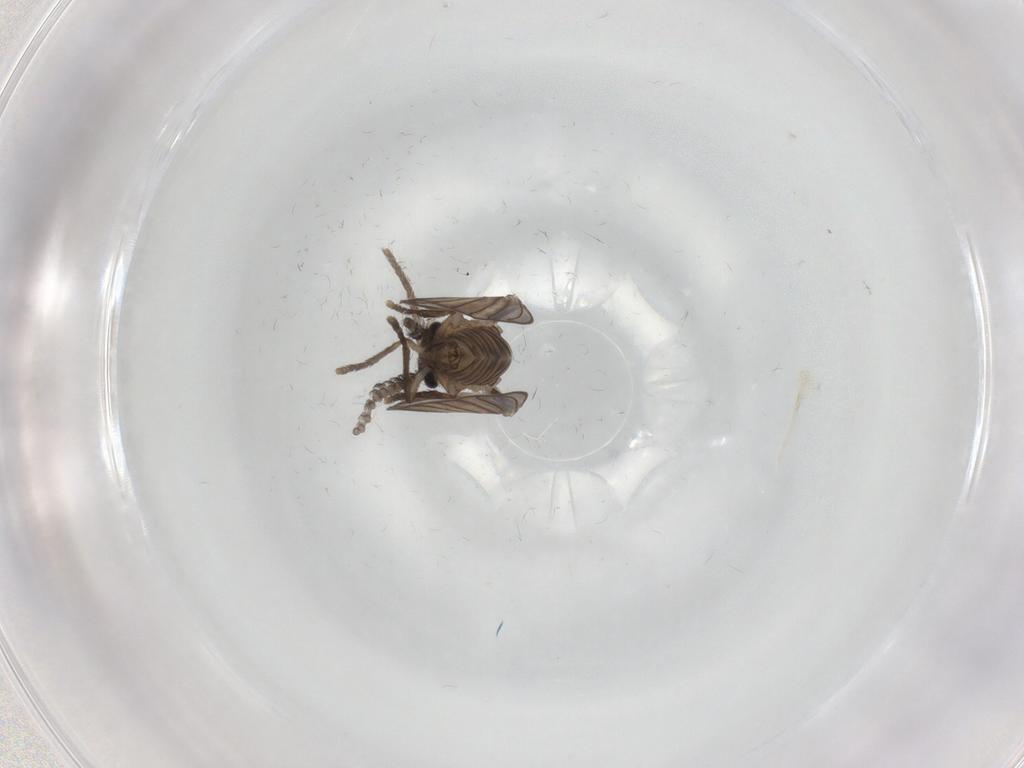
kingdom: Animalia
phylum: Arthropoda
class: Insecta
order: Diptera
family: Psychodidae
